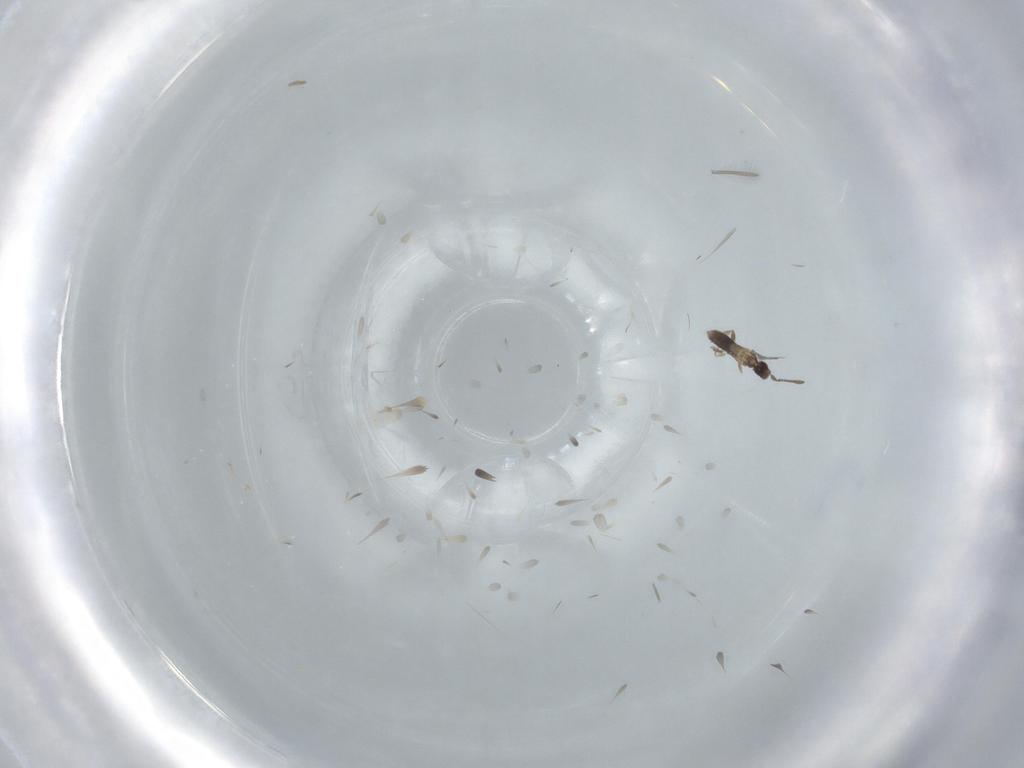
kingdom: Animalia
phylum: Arthropoda
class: Insecta
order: Hymenoptera
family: Mymaridae
